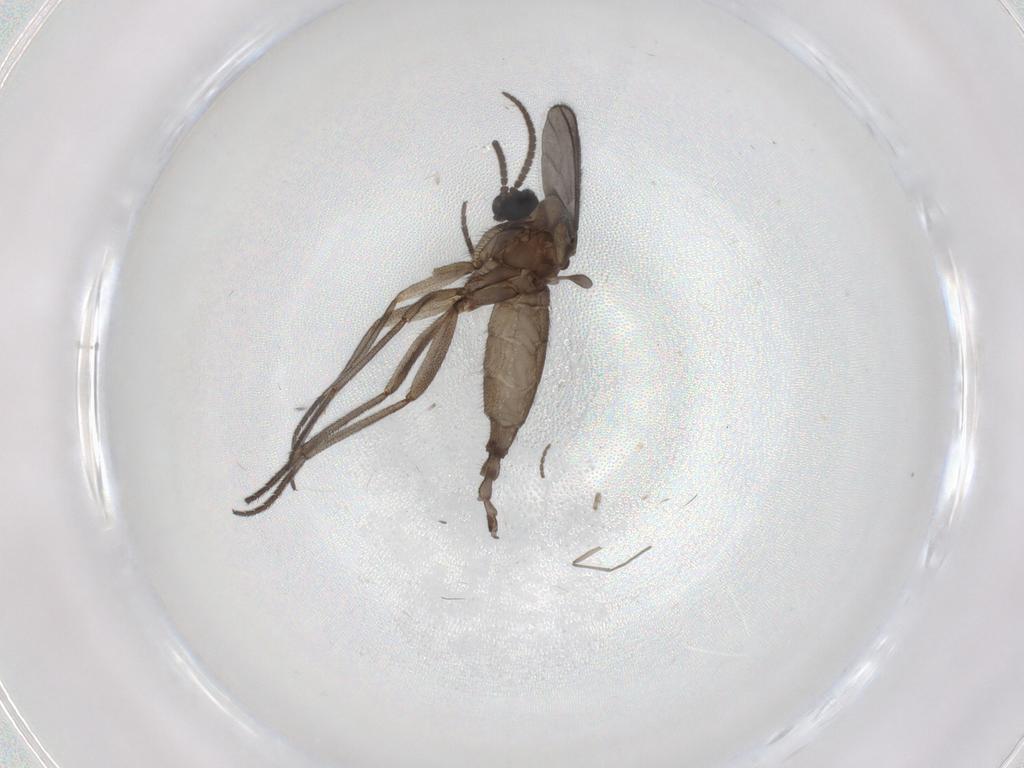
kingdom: Animalia
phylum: Arthropoda
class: Insecta
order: Diptera
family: Sciaridae
